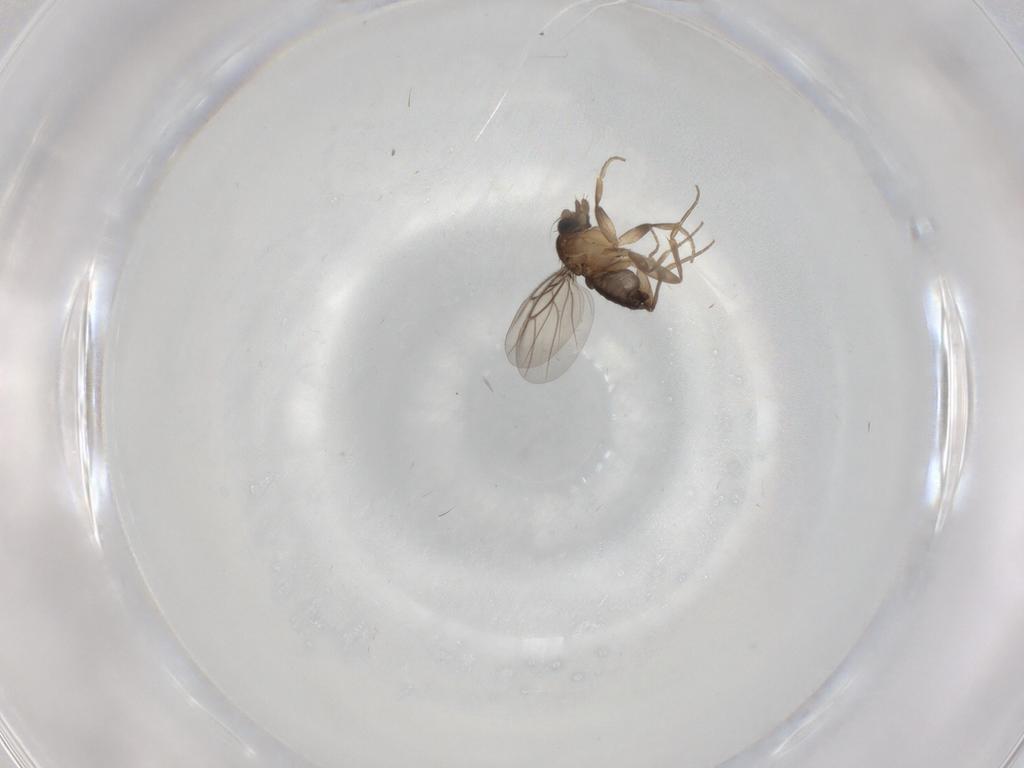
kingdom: Animalia
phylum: Arthropoda
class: Insecta
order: Diptera
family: Phoridae
